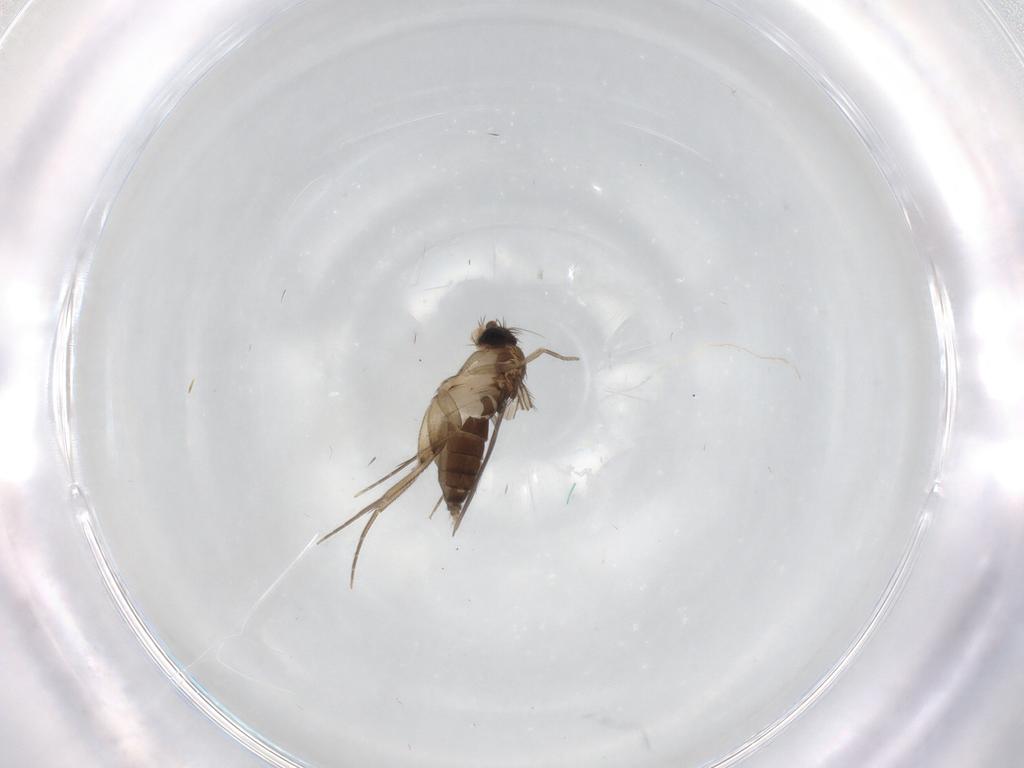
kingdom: Animalia
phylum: Arthropoda
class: Insecta
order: Diptera
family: Phoridae
